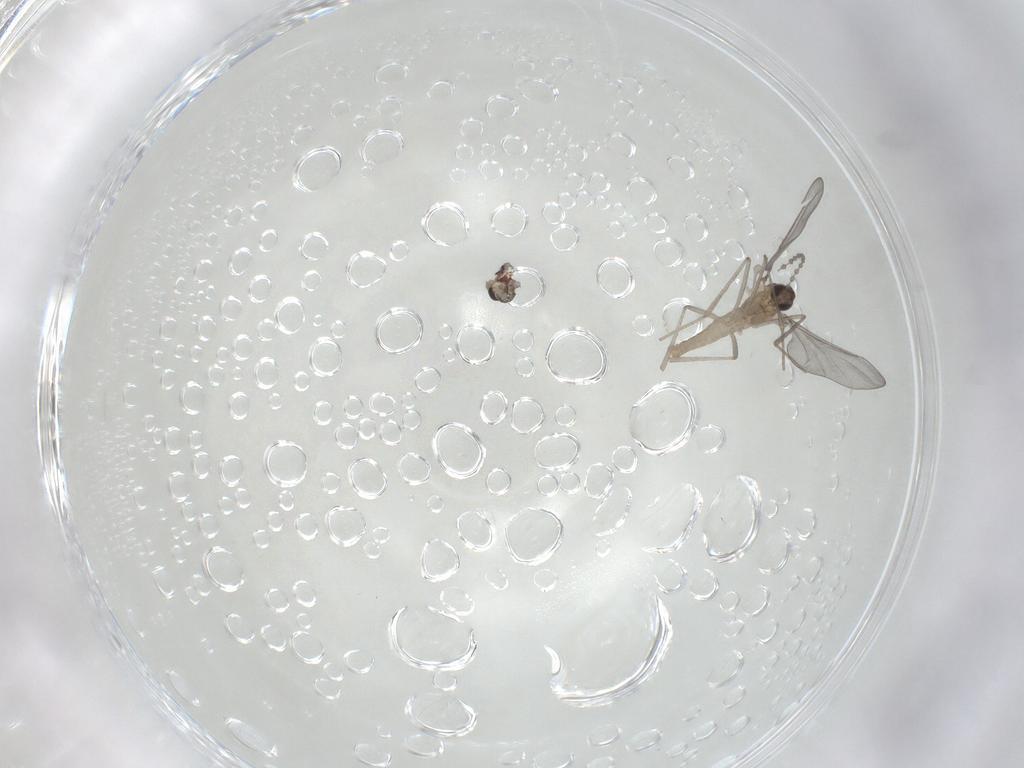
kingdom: Animalia
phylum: Arthropoda
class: Insecta
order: Diptera
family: Cecidomyiidae
